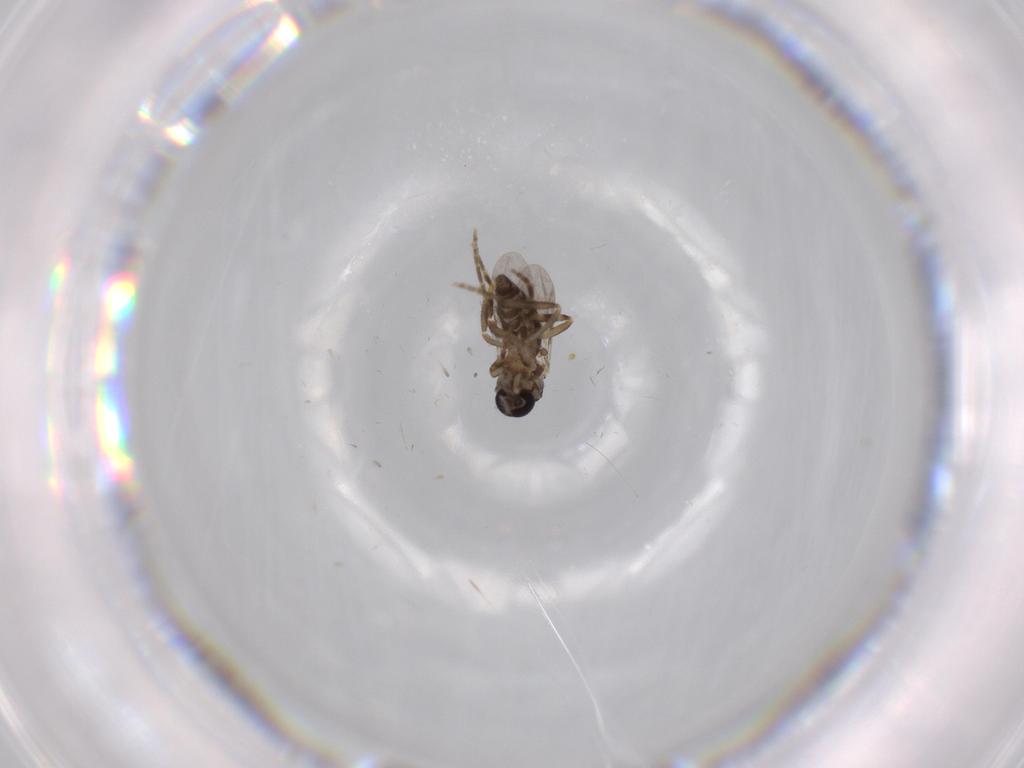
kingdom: Animalia
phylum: Arthropoda
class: Insecta
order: Diptera
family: Ceratopogonidae
